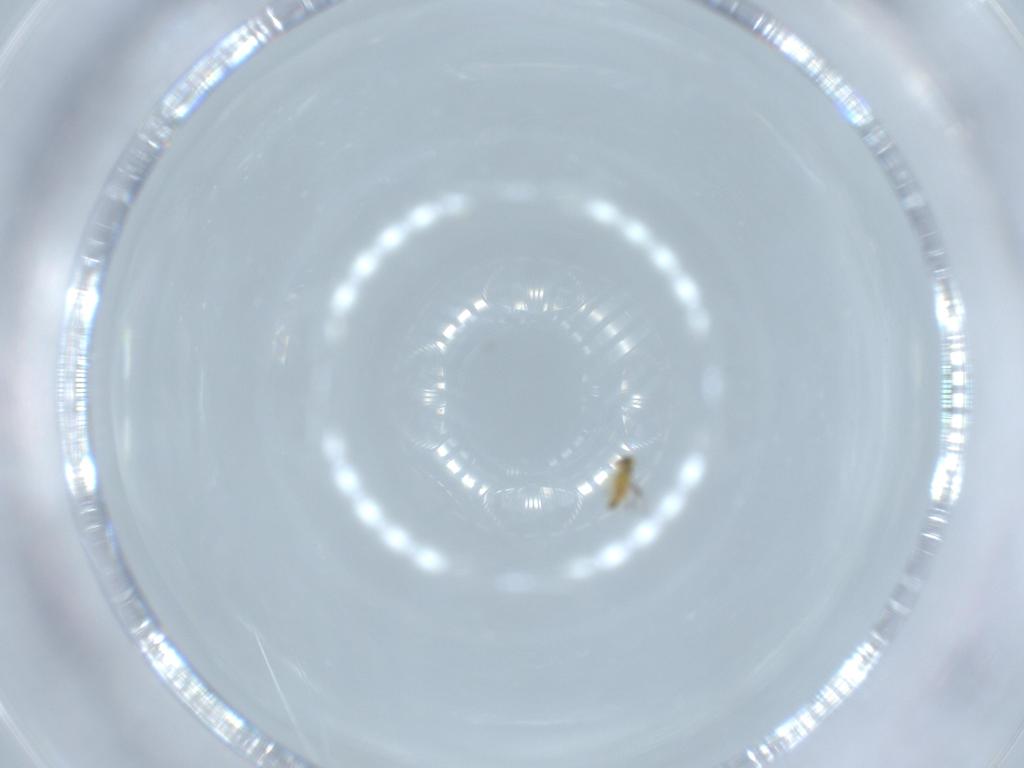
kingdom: Animalia
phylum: Arthropoda
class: Insecta
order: Hymenoptera
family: Signiphoridae
